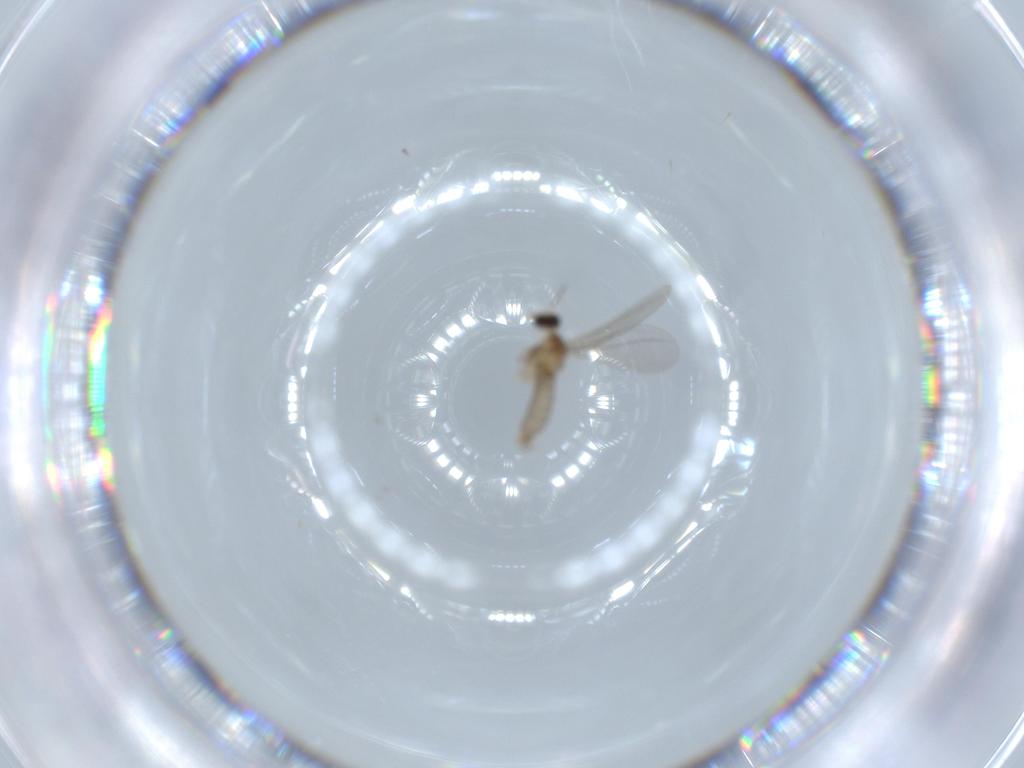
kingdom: Animalia
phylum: Arthropoda
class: Insecta
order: Diptera
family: Cecidomyiidae
